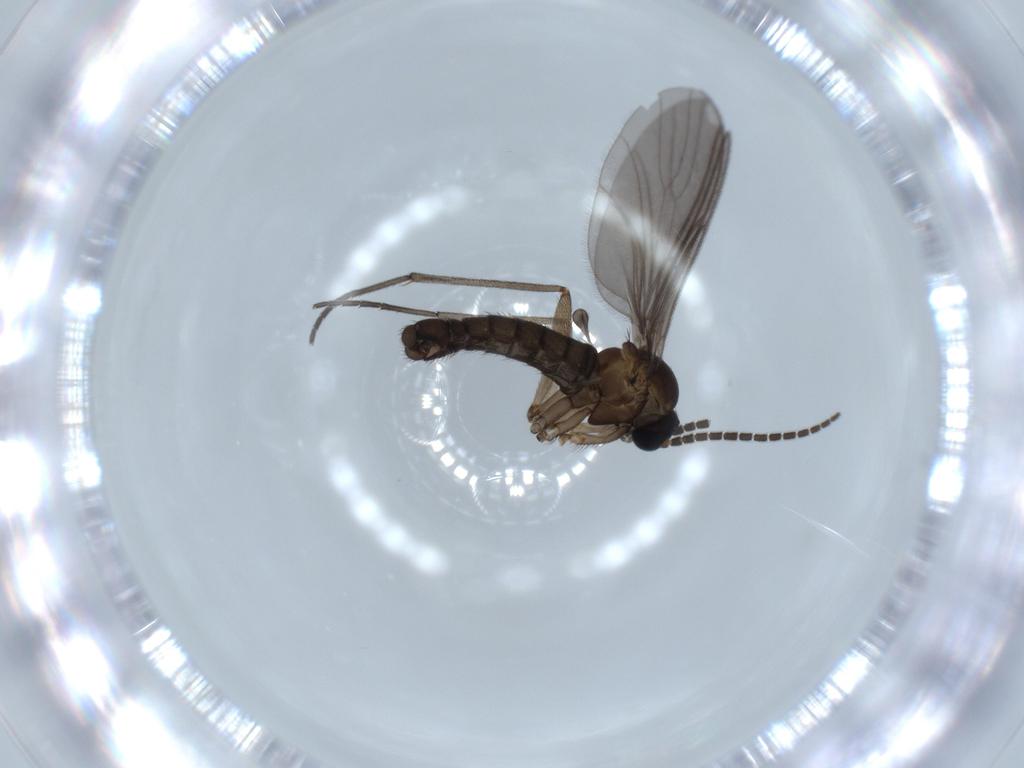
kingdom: Animalia
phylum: Arthropoda
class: Insecta
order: Diptera
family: Sciaridae
